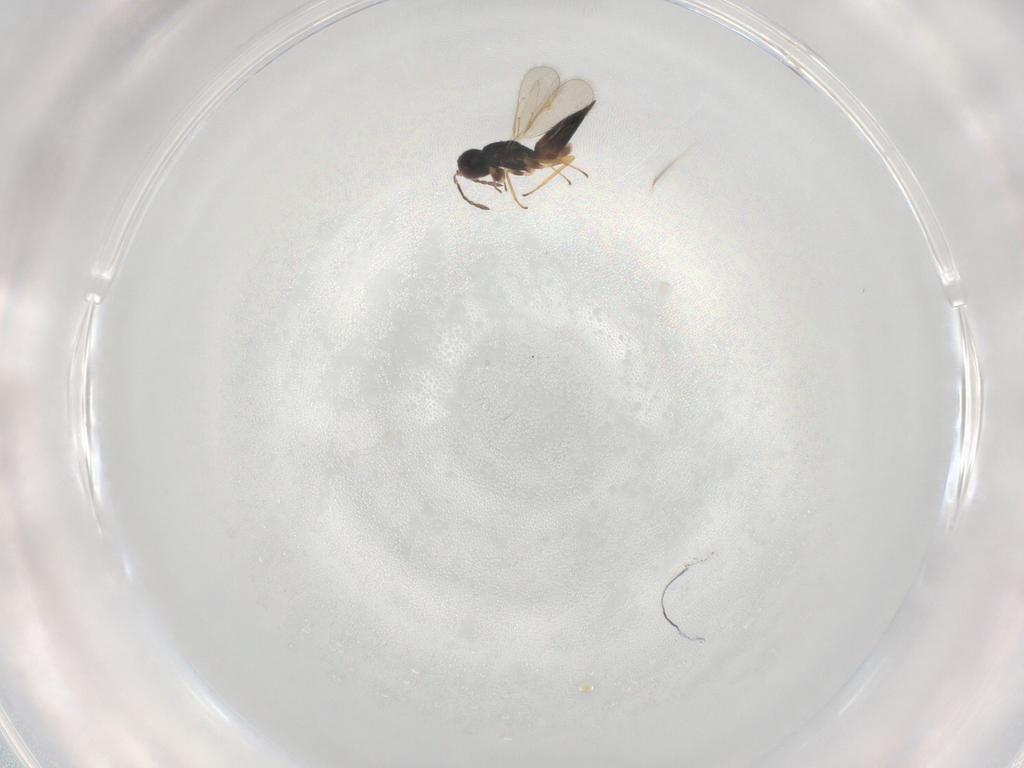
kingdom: Animalia
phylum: Arthropoda
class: Insecta
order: Hymenoptera
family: Eulophidae
